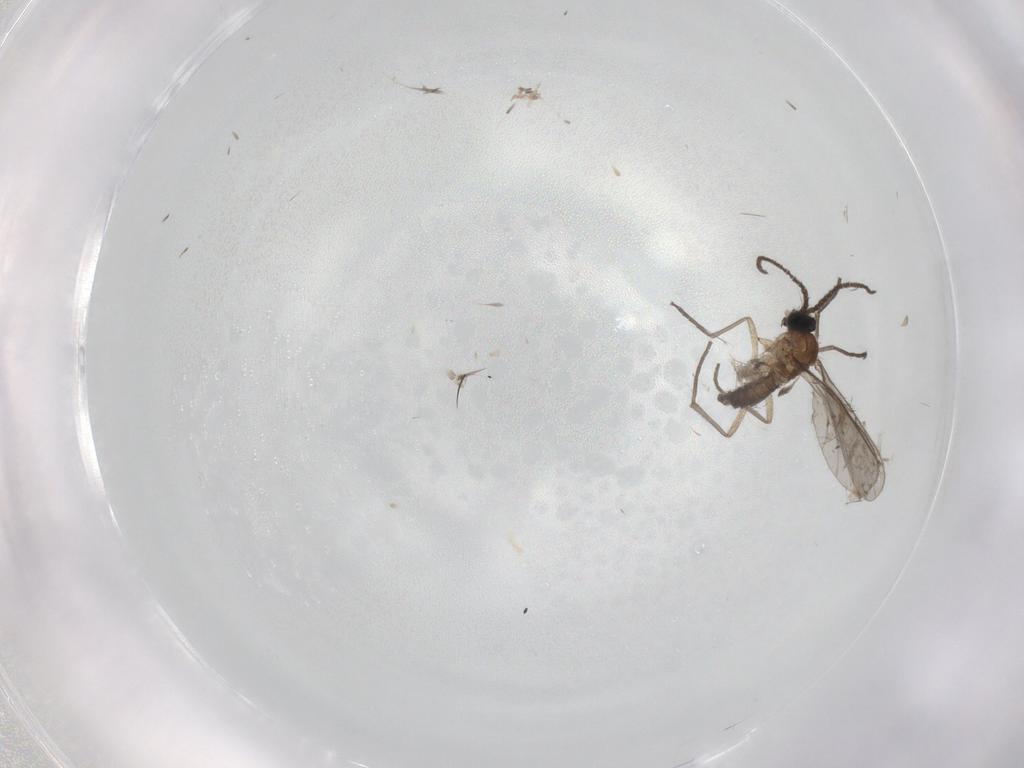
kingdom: Animalia
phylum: Arthropoda
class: Insecta
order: Diptera
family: Sciaridae
